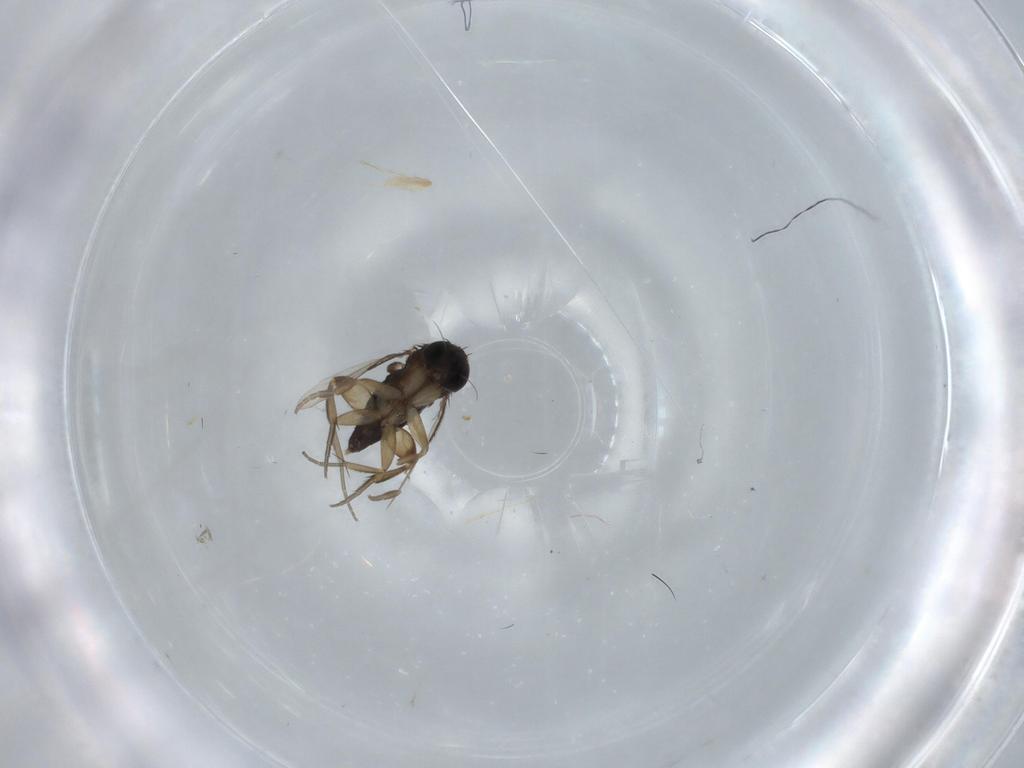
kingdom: Animalia
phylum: Arthropoda
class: Insecta
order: Diptera
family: Phoridae
